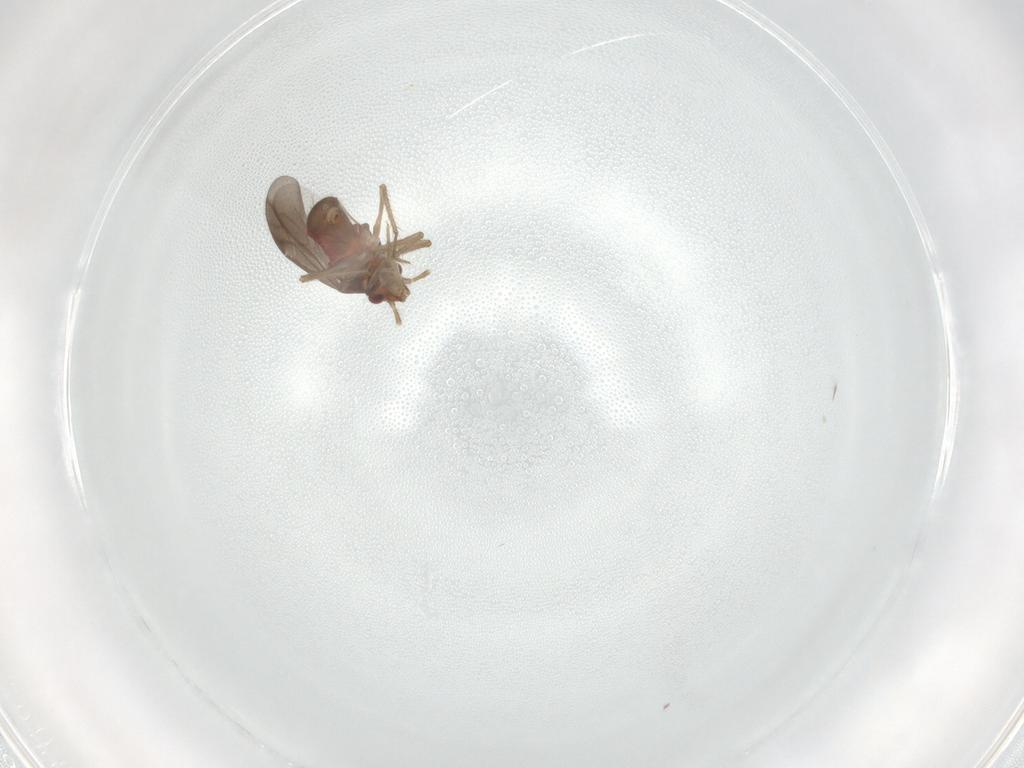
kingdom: Animalia
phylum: Arthropoda
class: Insecta
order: Hemiptera
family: Ceratocombidae
